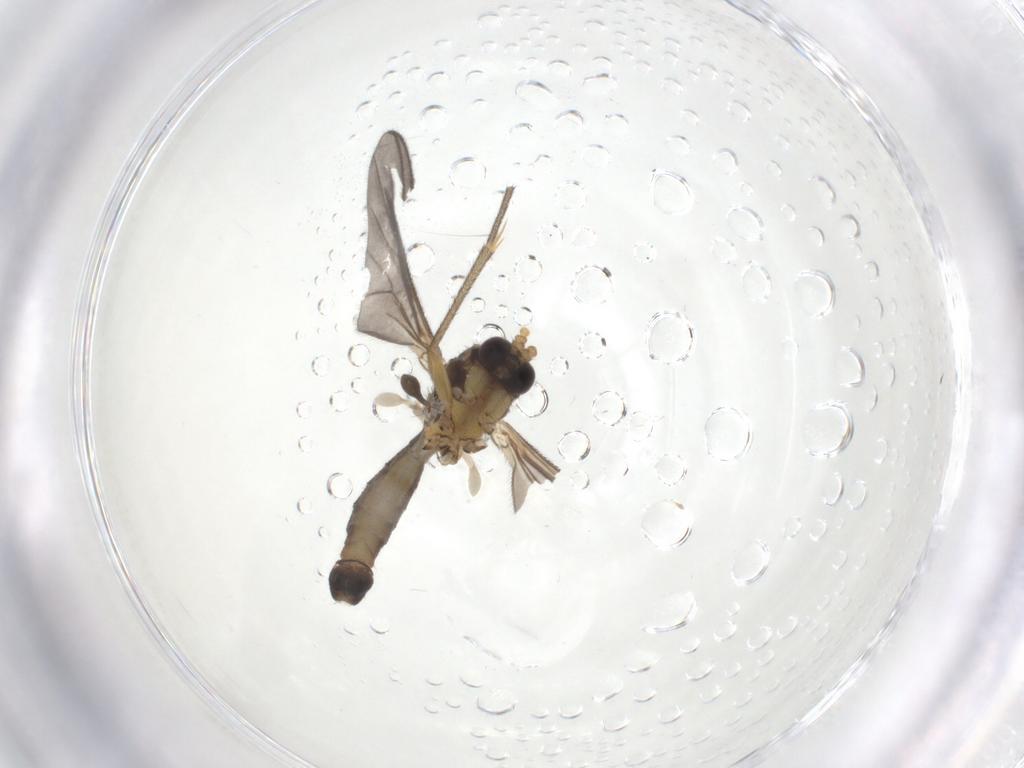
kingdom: Animalia
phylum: Arthropoda
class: Insecta
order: Diptera
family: Mycetophilidae
